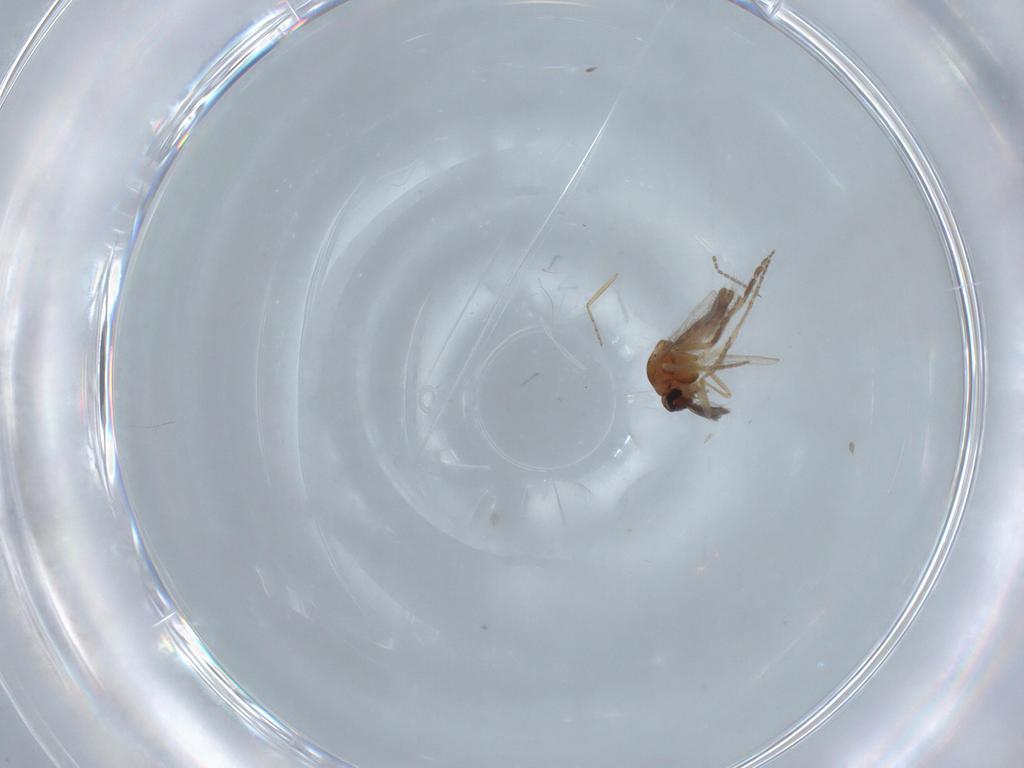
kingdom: Animalia
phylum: Arthropoda
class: Insecta
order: Diptera
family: Ceratopogonidae
